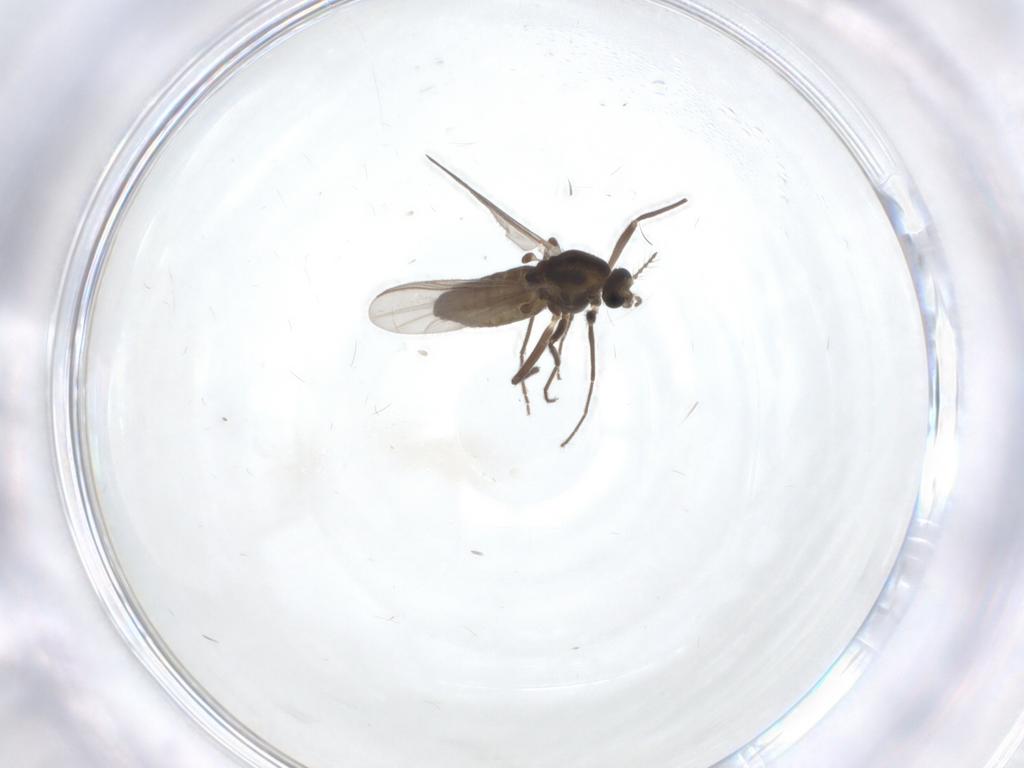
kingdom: Animalia
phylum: Arthropoda
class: Insecta
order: Diptera
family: Chironomidae
